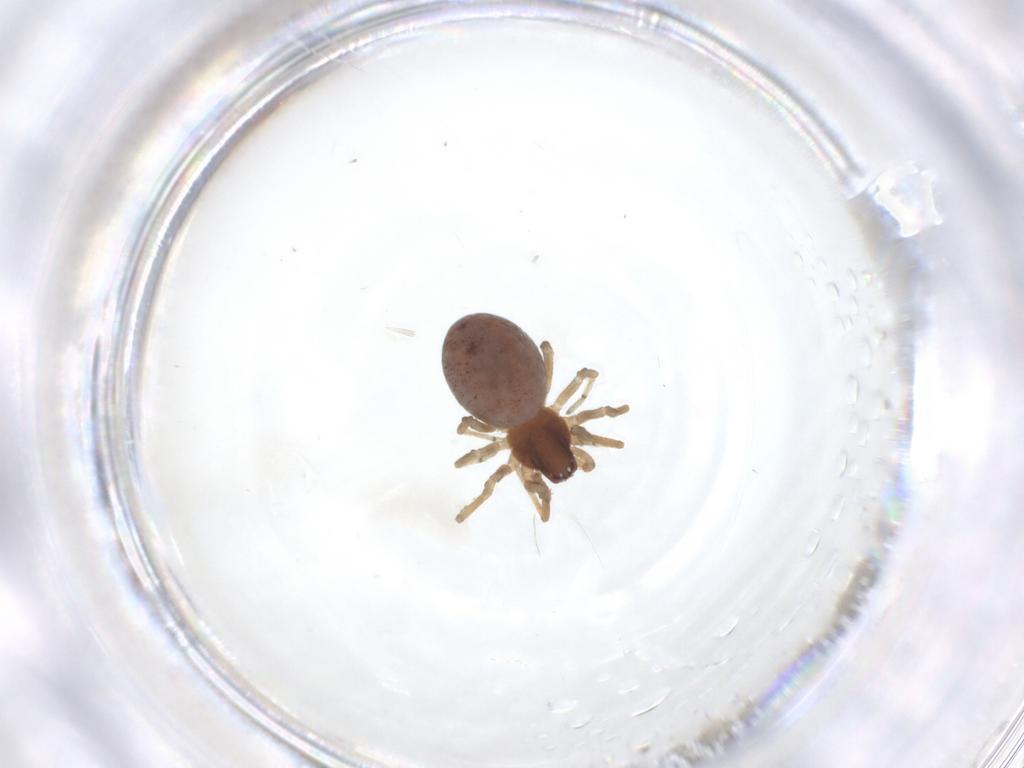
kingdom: Animalia
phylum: Arthropoda
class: Arachnida
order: Araneae
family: Dictynidae
